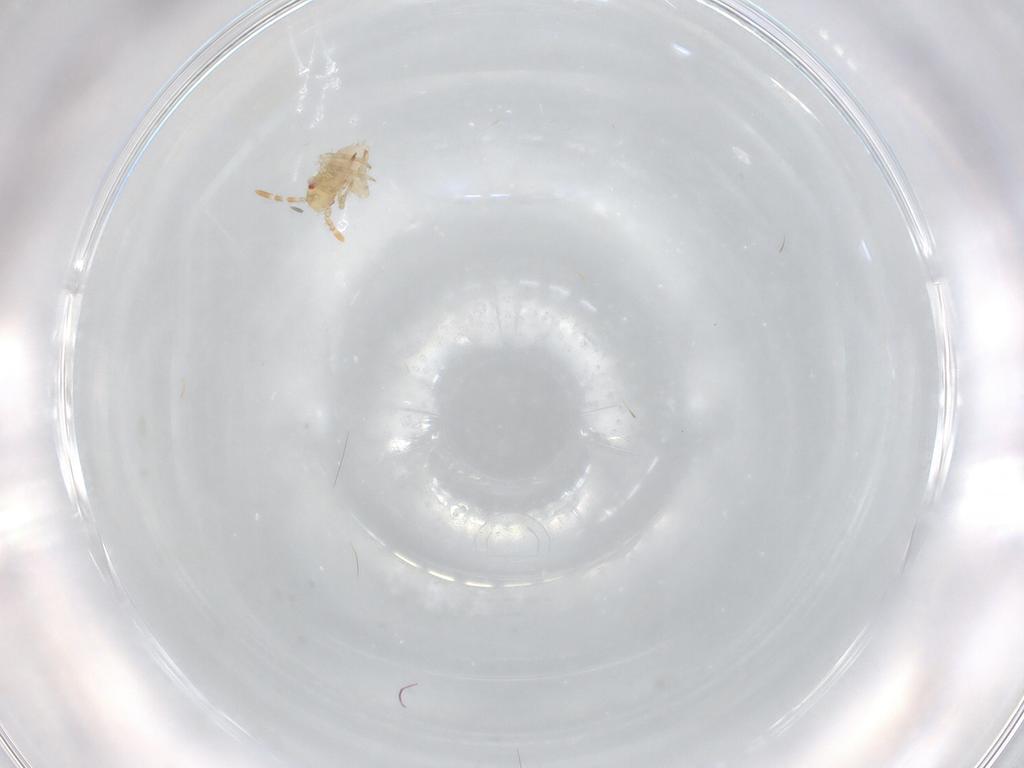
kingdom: Animalia
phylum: Arthropoda
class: Insecta
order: Hemiptera
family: Miridae
